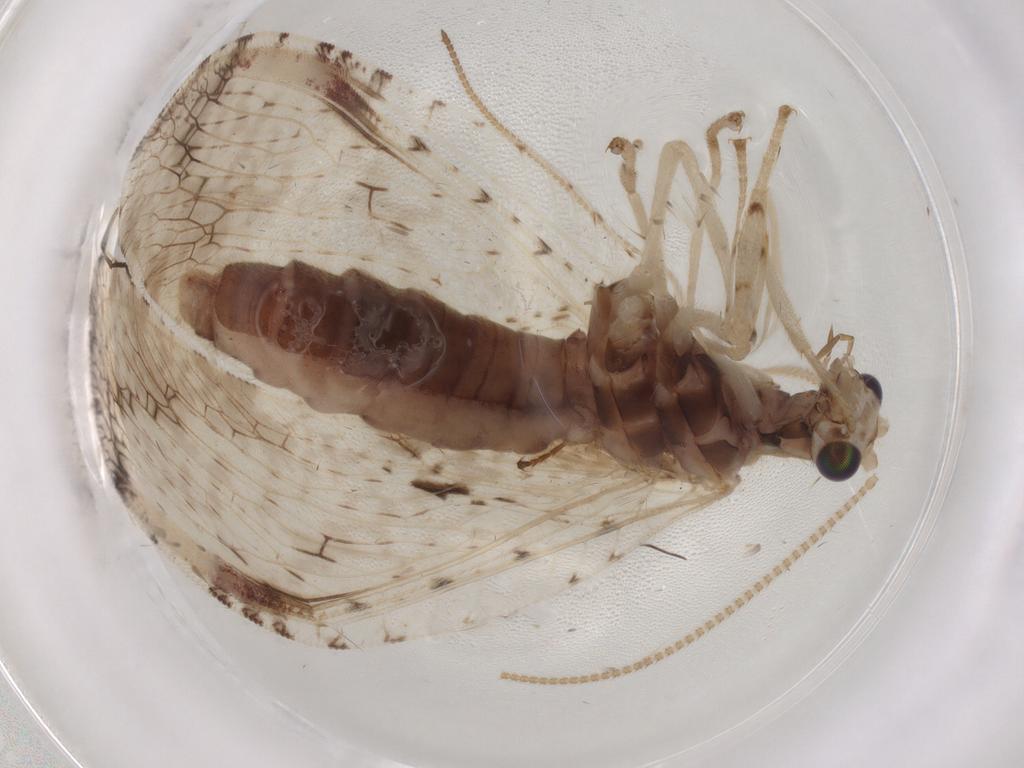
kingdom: Animalia
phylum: Arthropoda
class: Insecta
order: Neuroptera
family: Hemerobiidae
